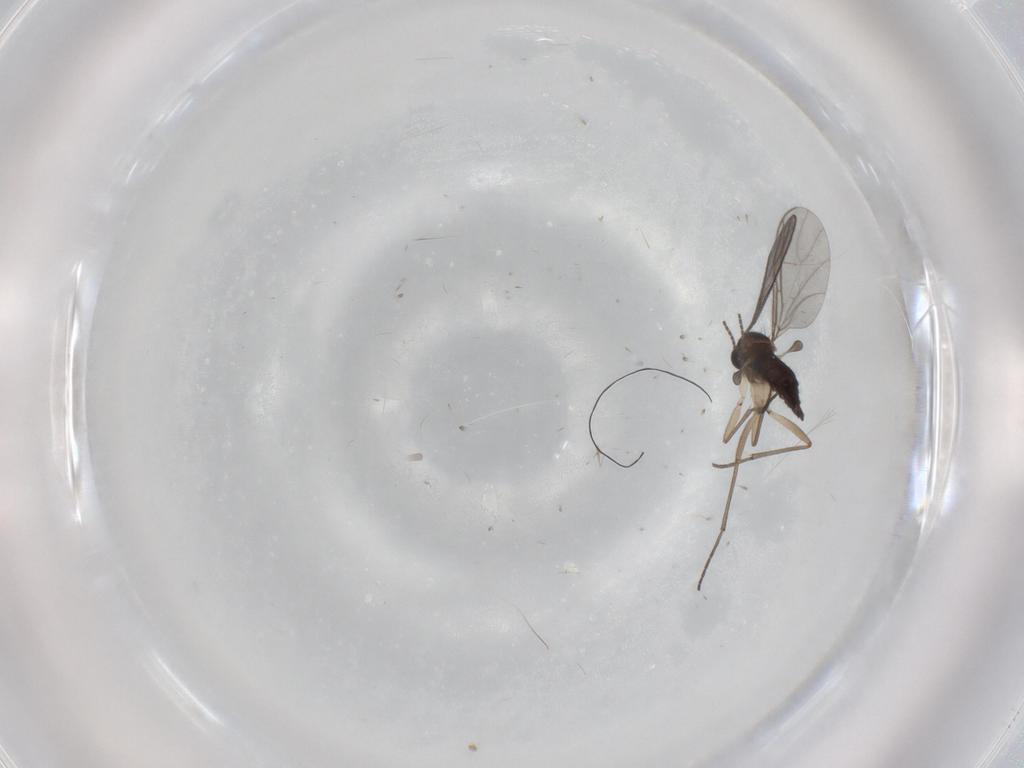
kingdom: Animalia
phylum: Arthropoda
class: Insecta
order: Diptera
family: Sciaridae
